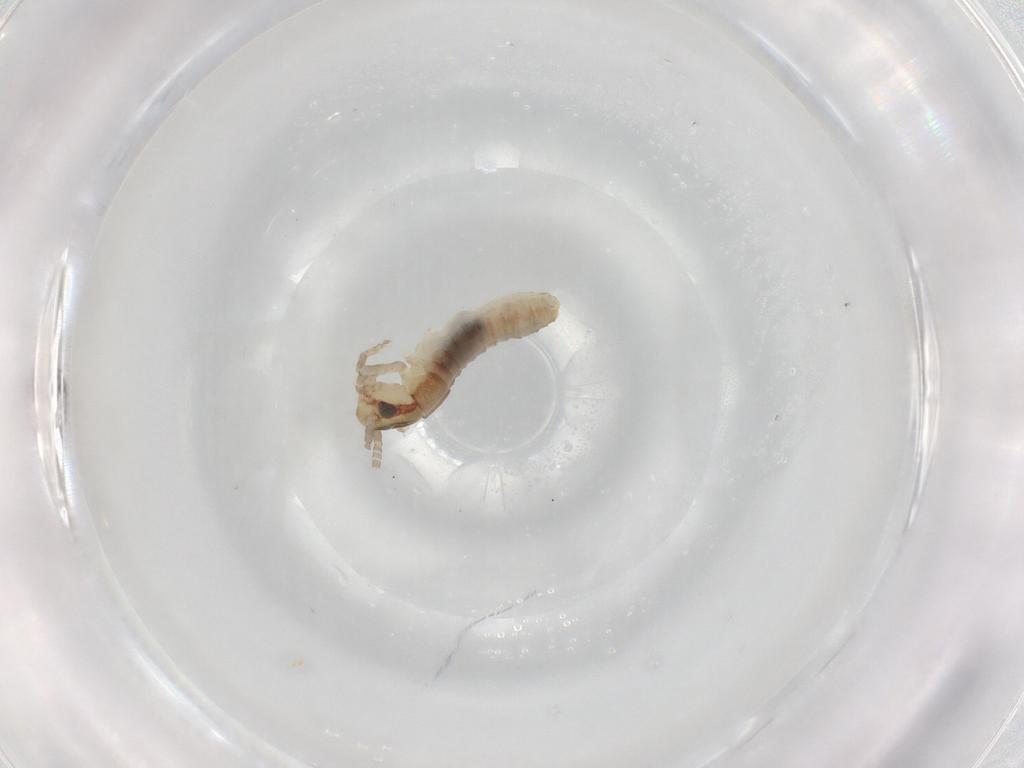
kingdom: Animalia
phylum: Arthropoda
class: Insecta
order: Orthoptera
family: Gryllidae
